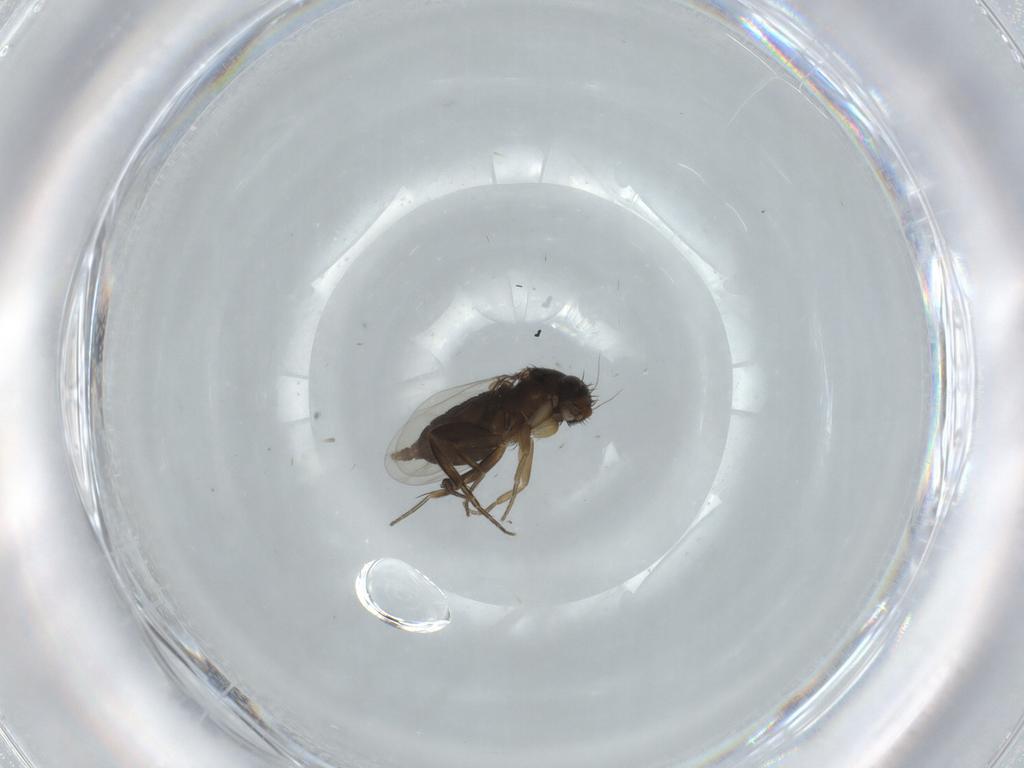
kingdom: Animalia
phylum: Arthropoda
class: Insecta
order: Diptera
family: Phoridae
